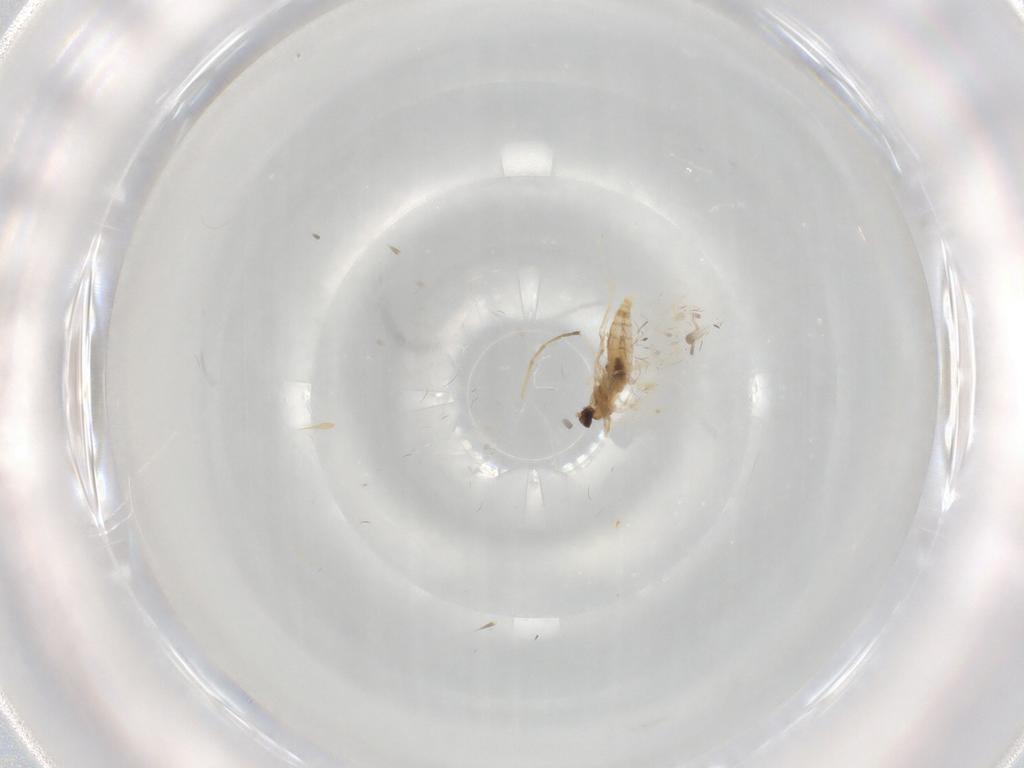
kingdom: Animalia
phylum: Arthropoda
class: Insecta
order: Diptera
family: Cecidomyiidae
